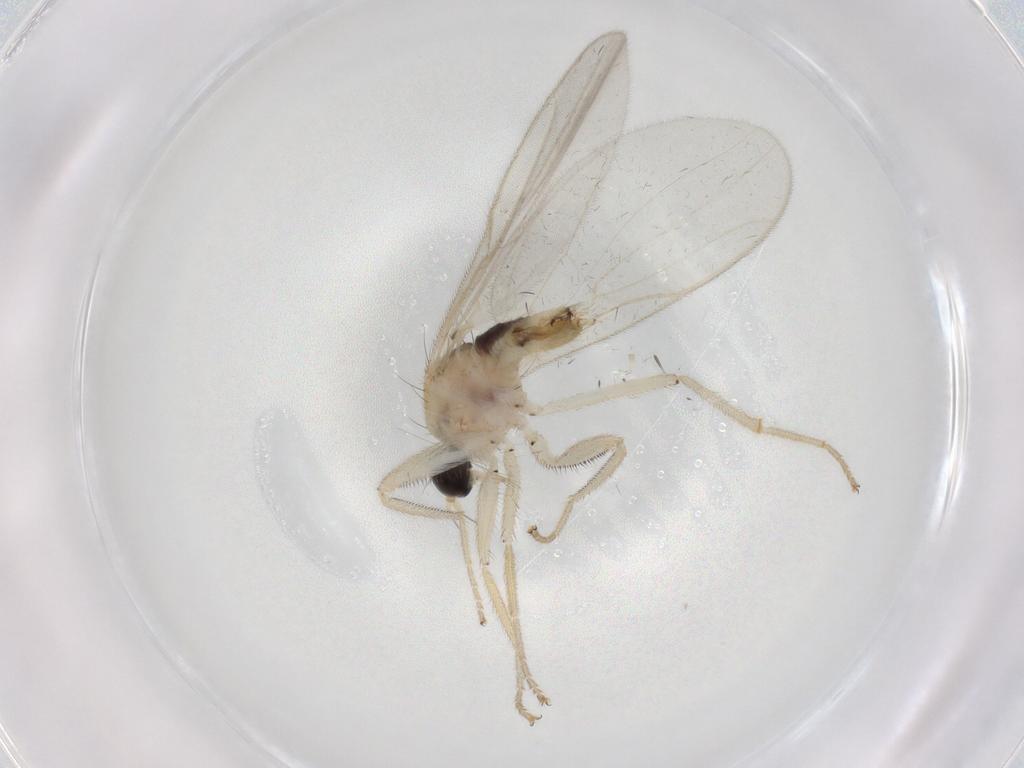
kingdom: Animalia
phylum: Arthropoda
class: Insecta
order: Diptera
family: Hybotidae
